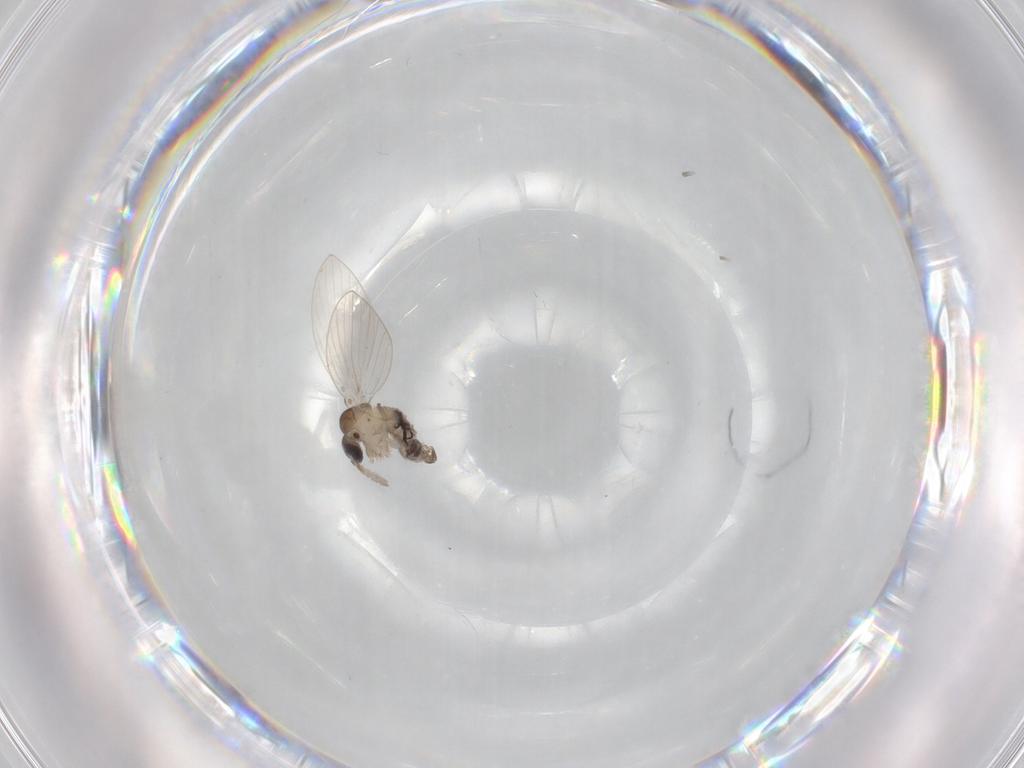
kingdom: Animalia
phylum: Arthropoda
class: Insecta
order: Diptera
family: Psychodidae
